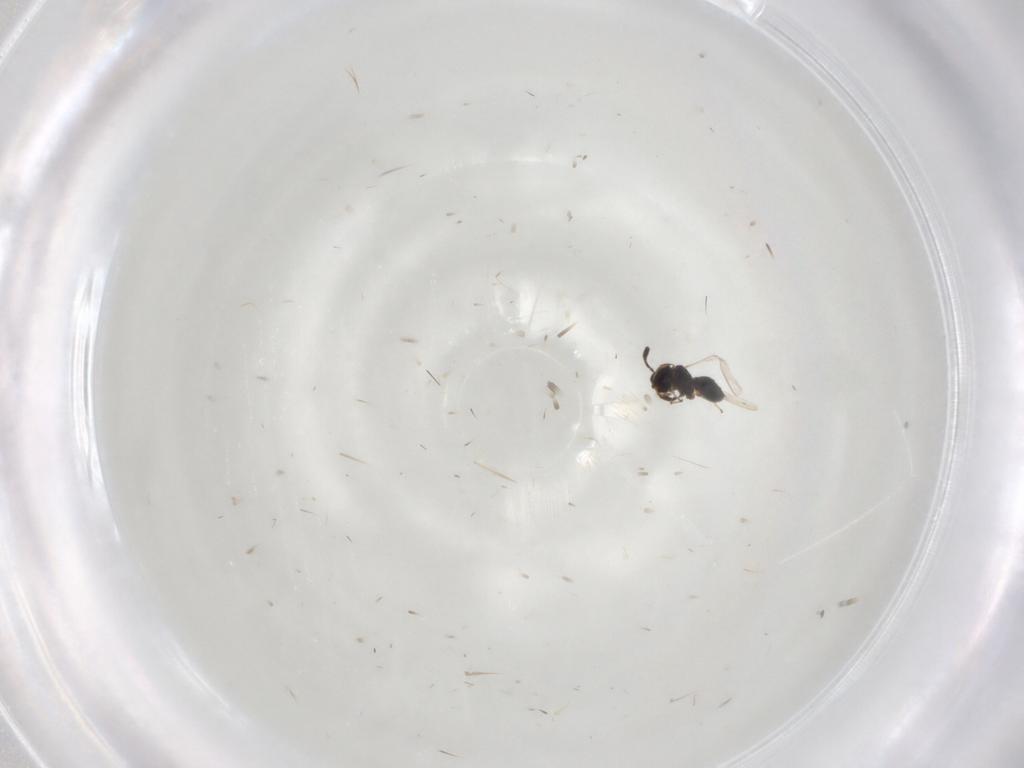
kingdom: Animalia
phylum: Arthropoda
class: Insecta
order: Hymenoptera
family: Scelionidae
